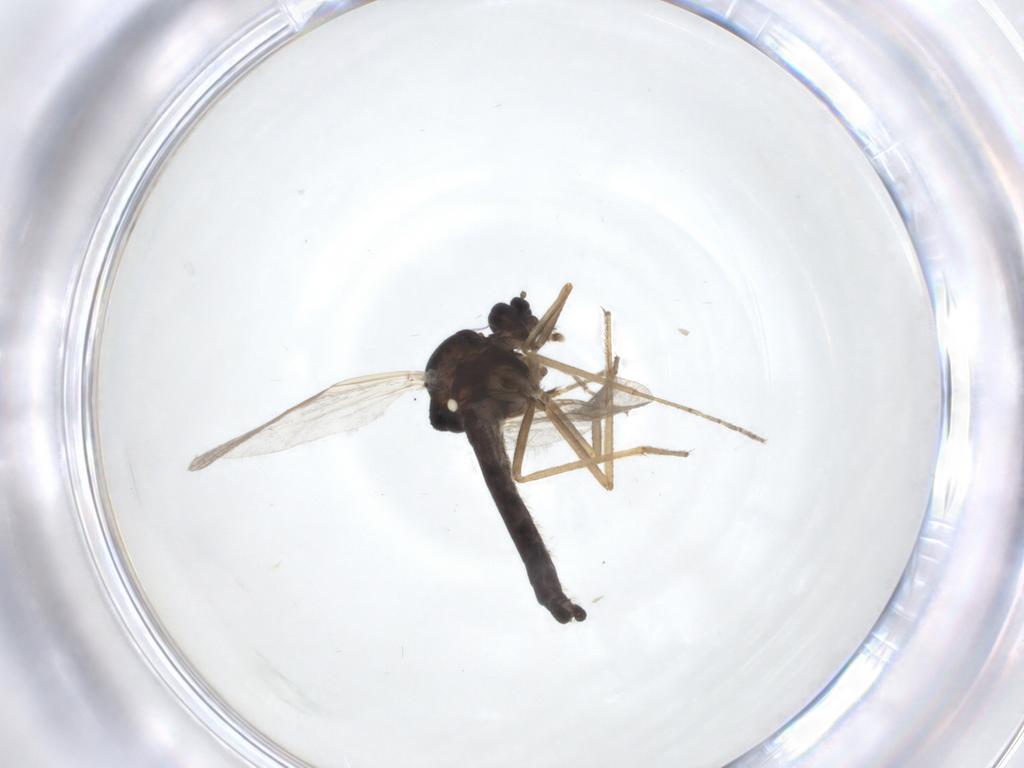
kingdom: Animalia
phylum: Arthropoda
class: Insecta
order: Diptera
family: Ceratopogonidae
